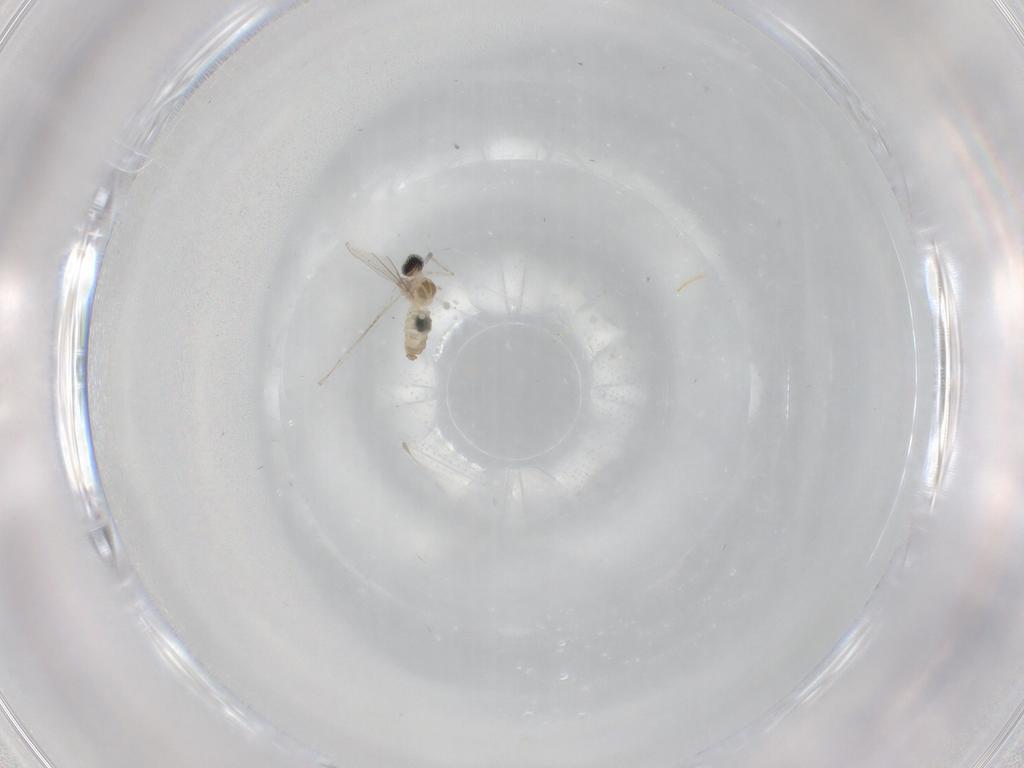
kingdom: Animalia
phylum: Arthropoda
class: Insecta
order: Diptera
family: Cecidomyiidae
